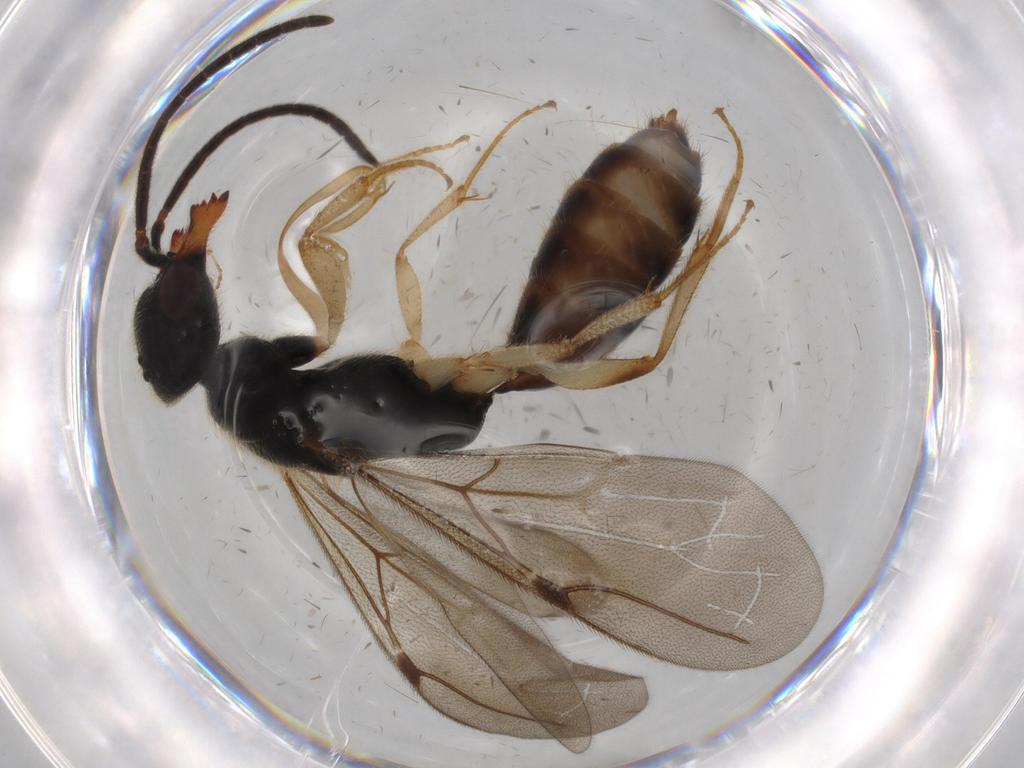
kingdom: Animalia
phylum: Arthropoda
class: Insecta
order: Hymenoptera
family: Bethylidae
